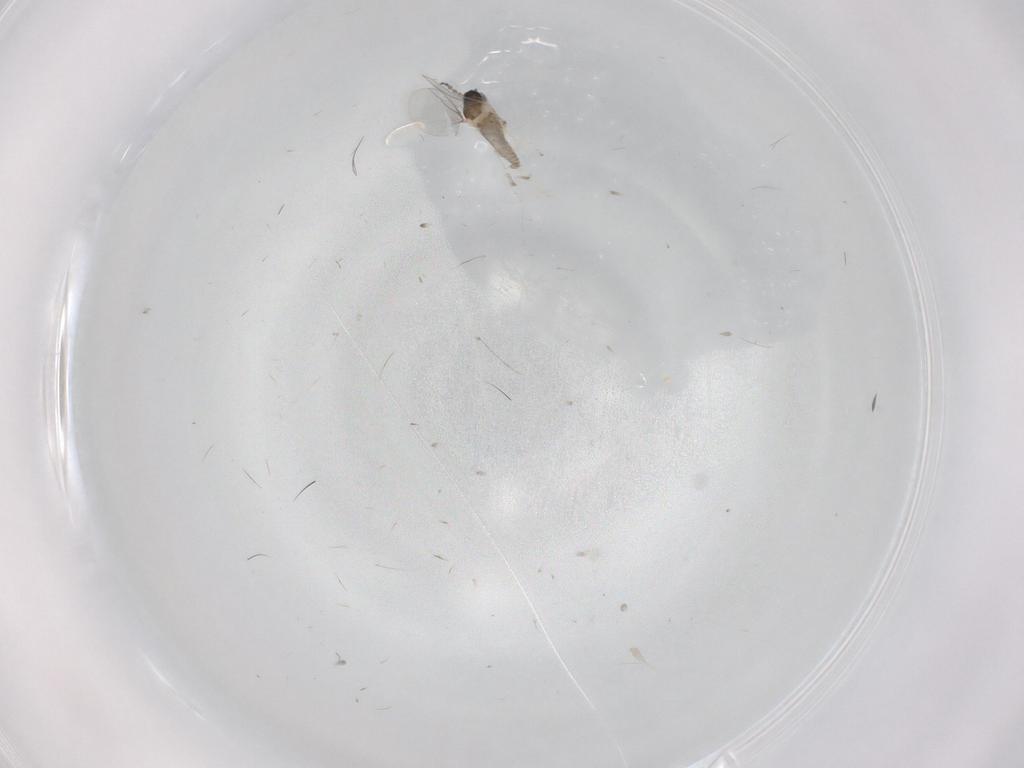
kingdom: Animalia
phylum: Arthropoda
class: Insecta
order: Diptera
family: Cecidomyiidae
